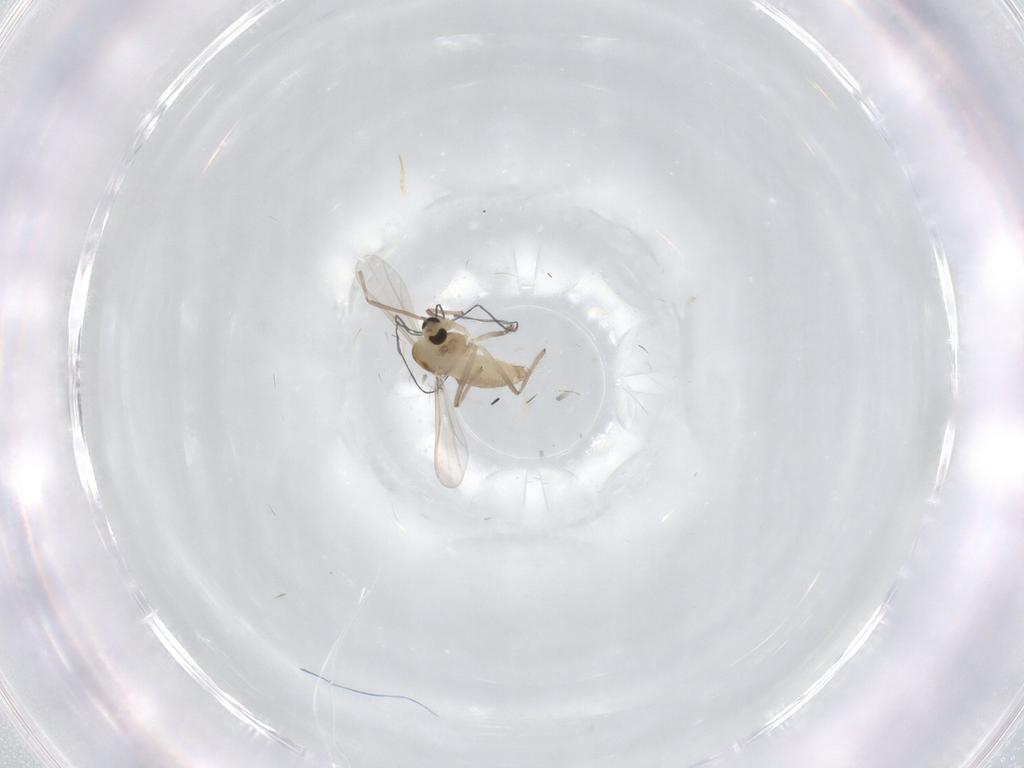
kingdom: Animalia
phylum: Arthropoda
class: Insecta
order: Diptera
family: Chironomidae
